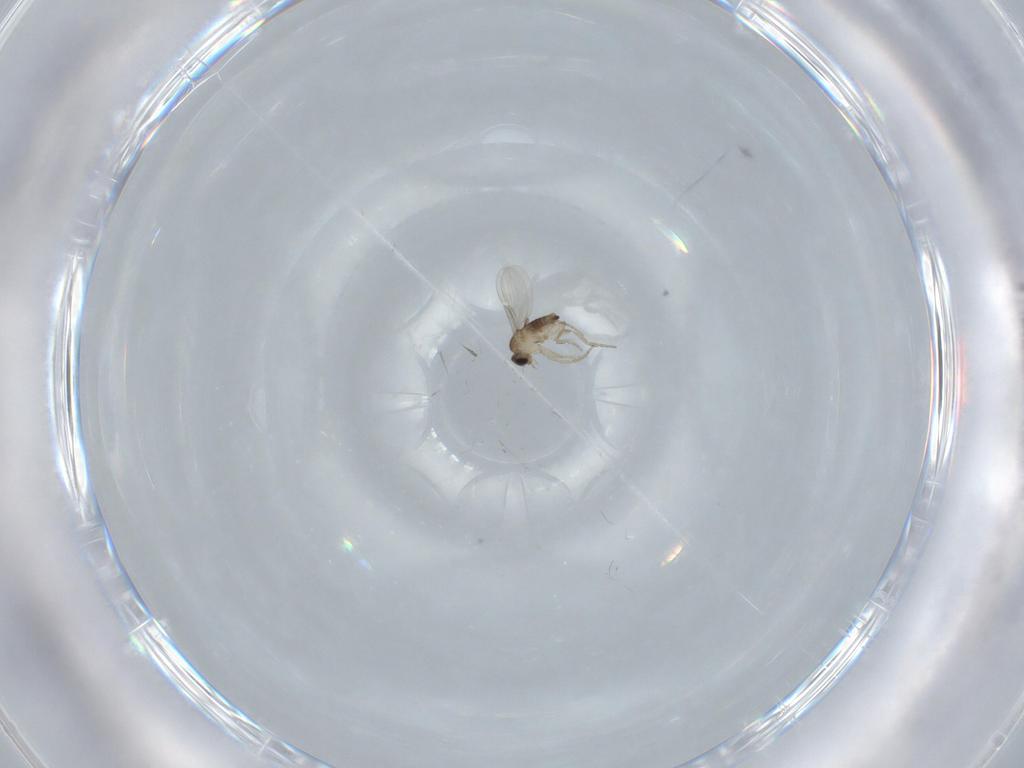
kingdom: Animalia
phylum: Arthropoda
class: Insecta
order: Diptera
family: Phoridae
